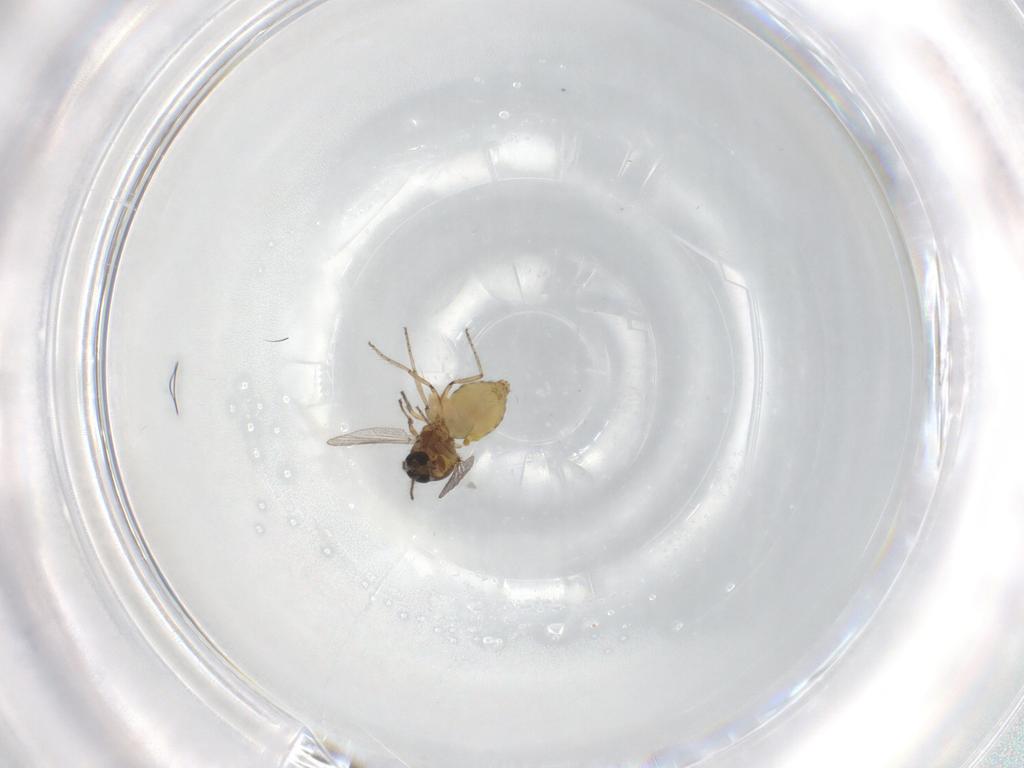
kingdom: Animalia
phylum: Arthropoda
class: Insecta
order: Diptera
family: Ceratopogonidae
